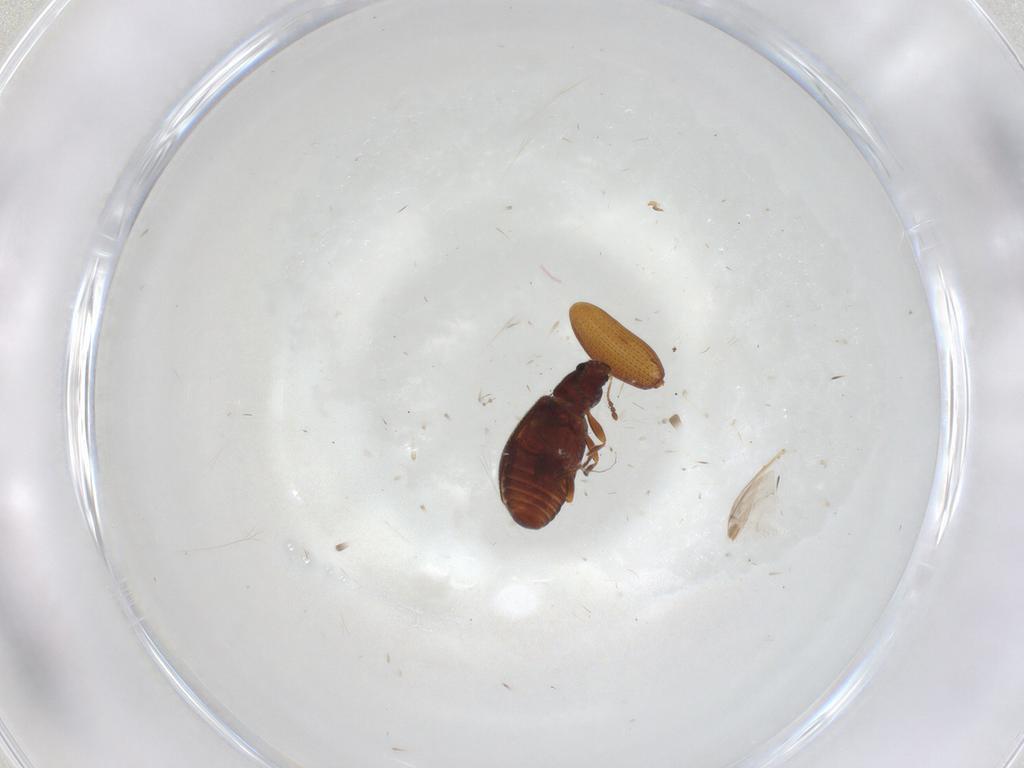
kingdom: Animalia
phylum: Arthropoda
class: Insecta
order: Coleoptera
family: Latridiidae
